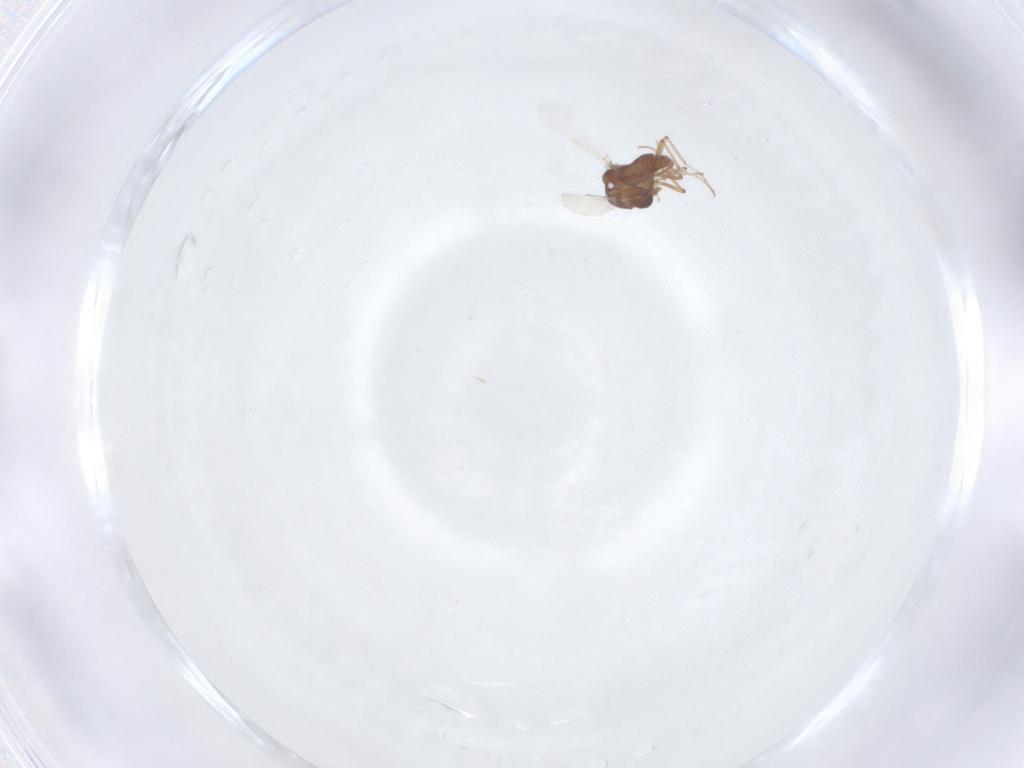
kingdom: Animalia
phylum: Arthropoda
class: Insecta
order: Diptera
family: Ceratopogonidae
